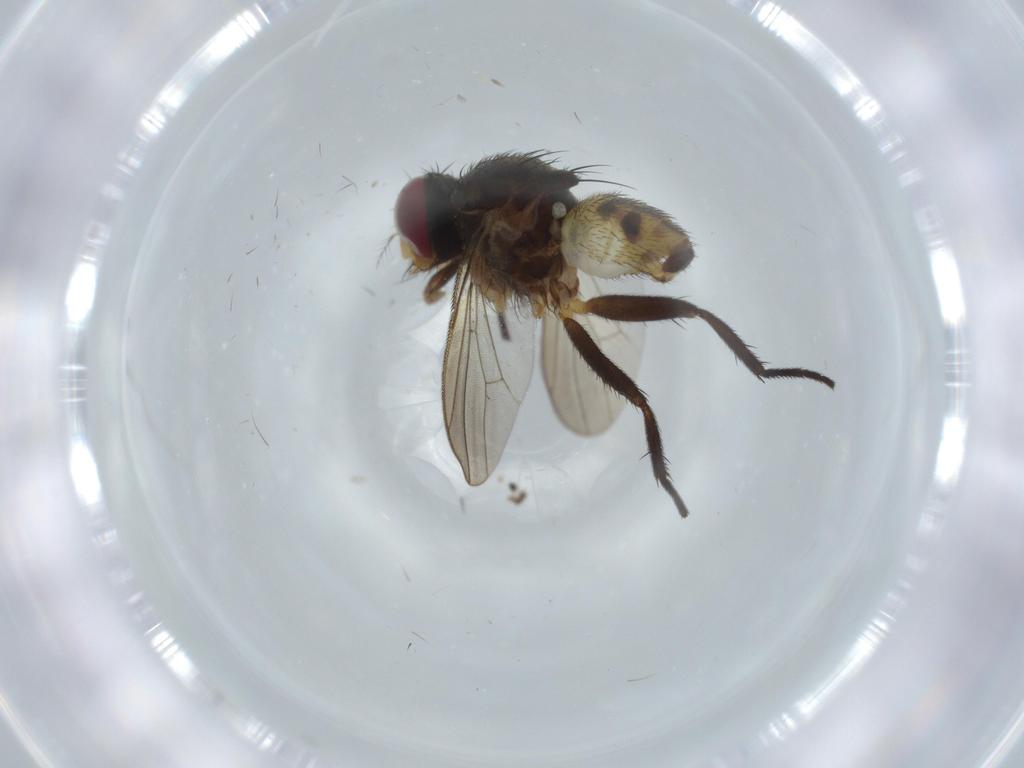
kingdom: Animalia
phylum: Arthropoda
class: Insecta
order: Diptera
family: Anthomyiidae
